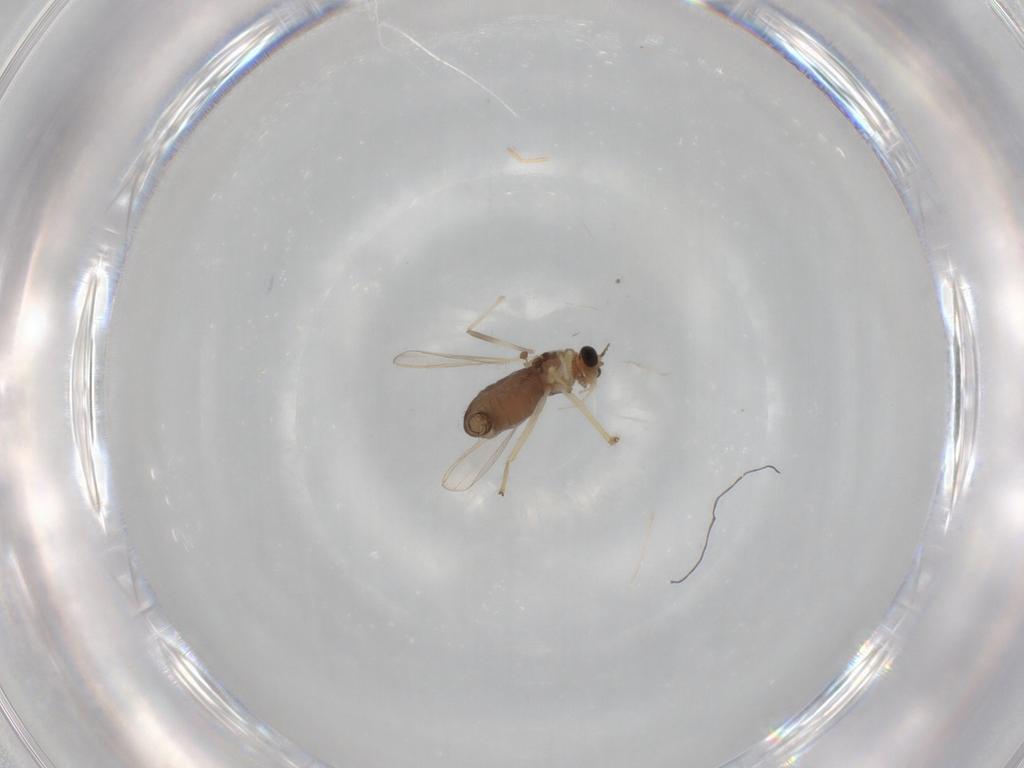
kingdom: Animalia
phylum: Arthropoda
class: Insecta
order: Diptera
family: Chironomidae
